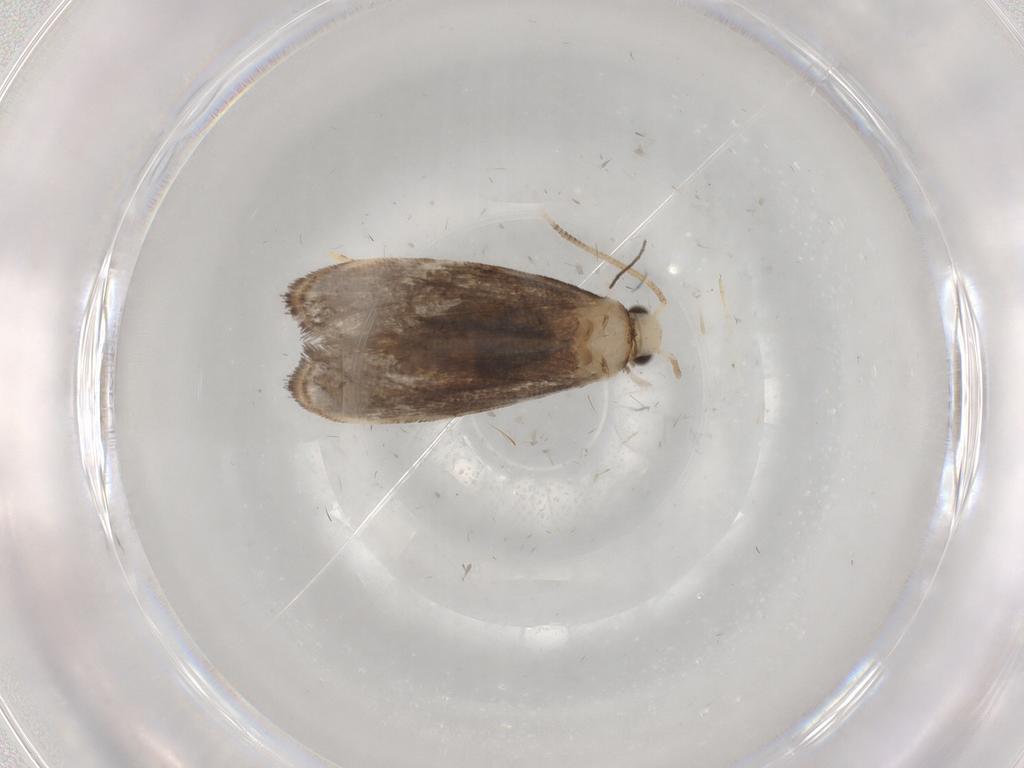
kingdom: Animalia
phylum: Arthropoda
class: Insecta
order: Lepidoptera
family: Dryadaulidae
